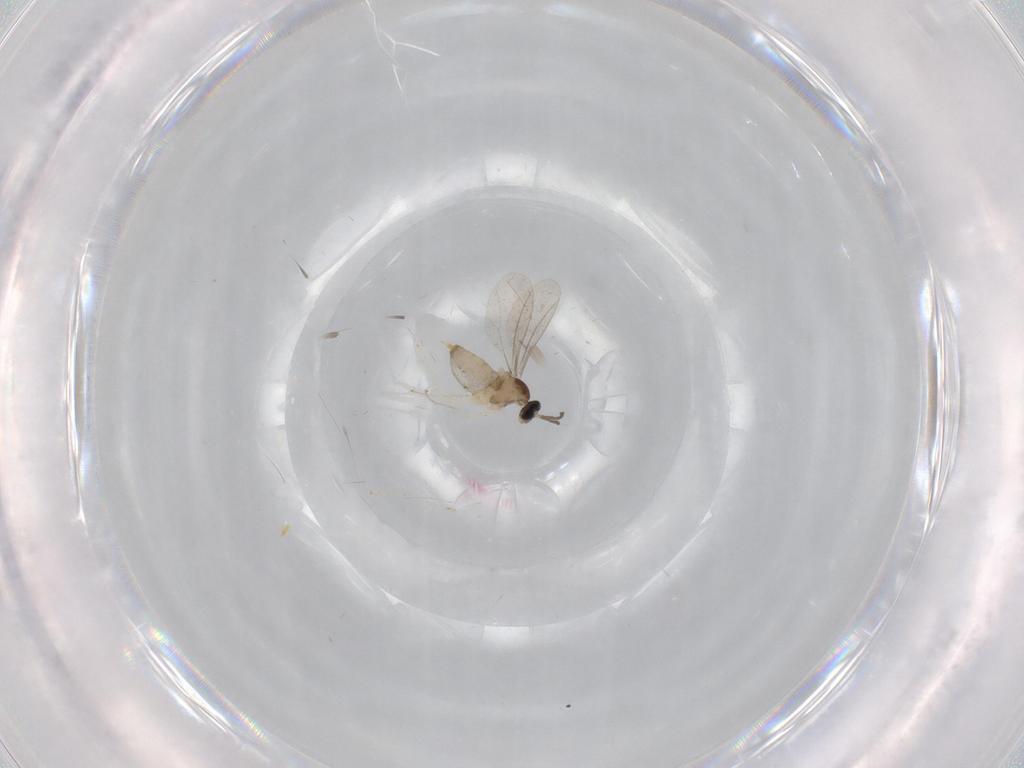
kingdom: Animalia
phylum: Arthropoda
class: Insecta
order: Diptera
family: Cecidomyiidae
